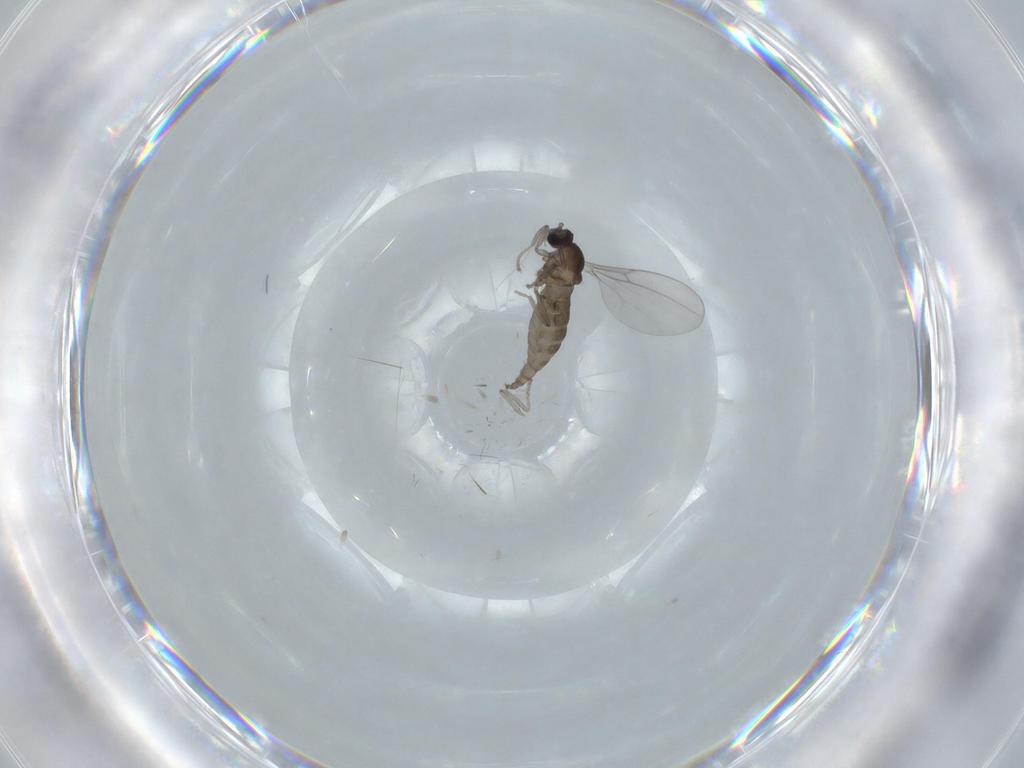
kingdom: Animalia
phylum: Arthropoda
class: Insecta
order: Diptera
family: Cecidomyiidae
